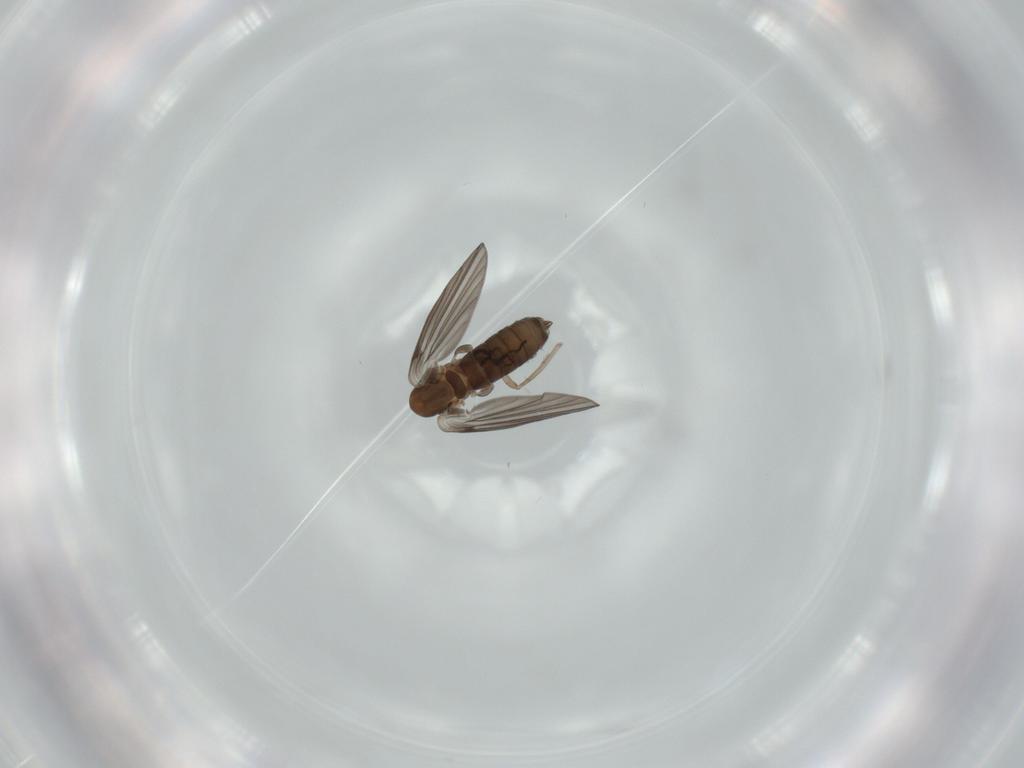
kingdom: Animalia
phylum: Arthropoda
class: Insecta
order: Diptera
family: Psychodidae
